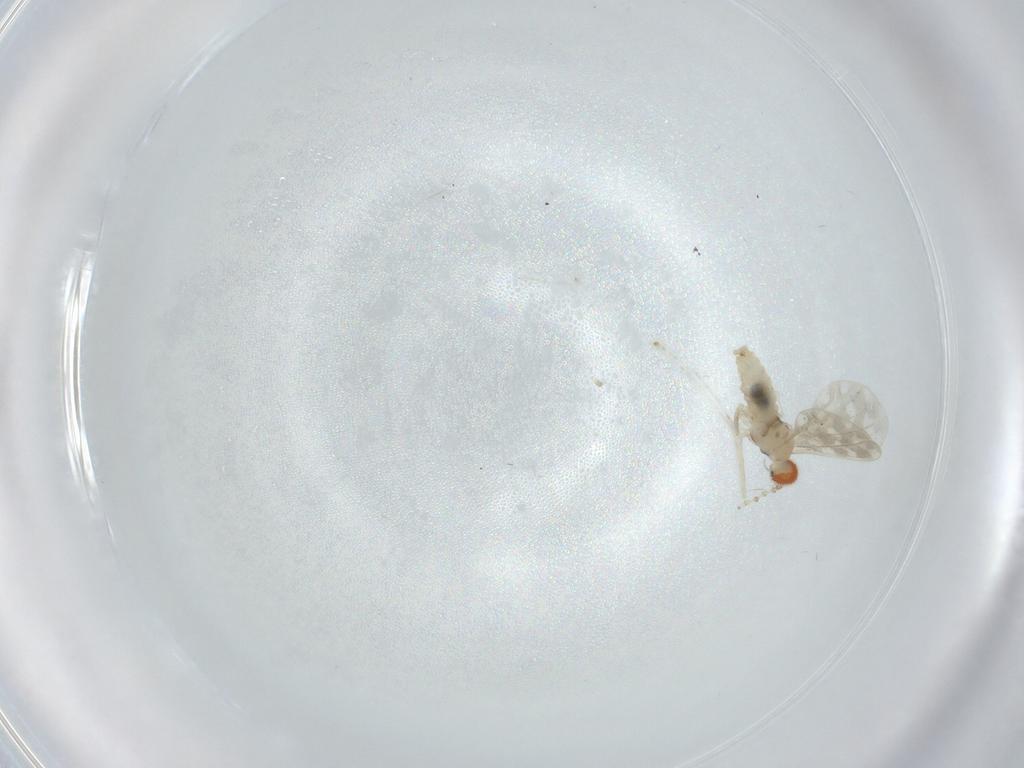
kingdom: Animalia
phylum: Arthropoda
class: Insecta
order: Diptera
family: Cecidomyiidae
